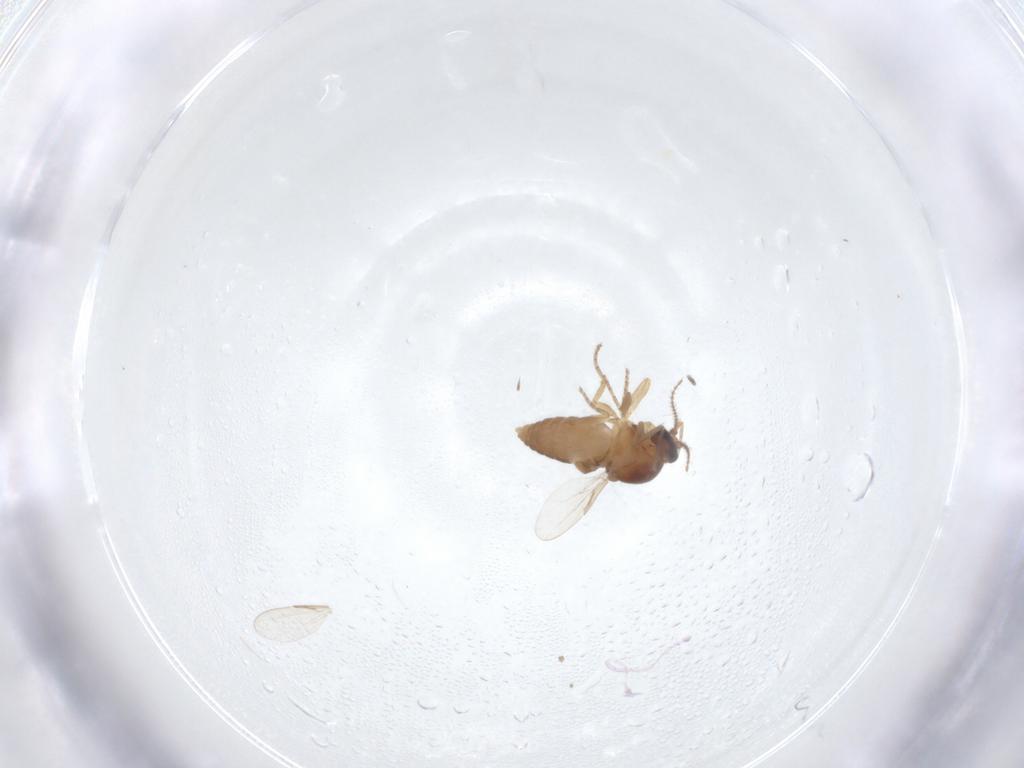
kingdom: Animalia
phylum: Arthropoda
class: Insecta
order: Diptera
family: Ceratopogonidae
